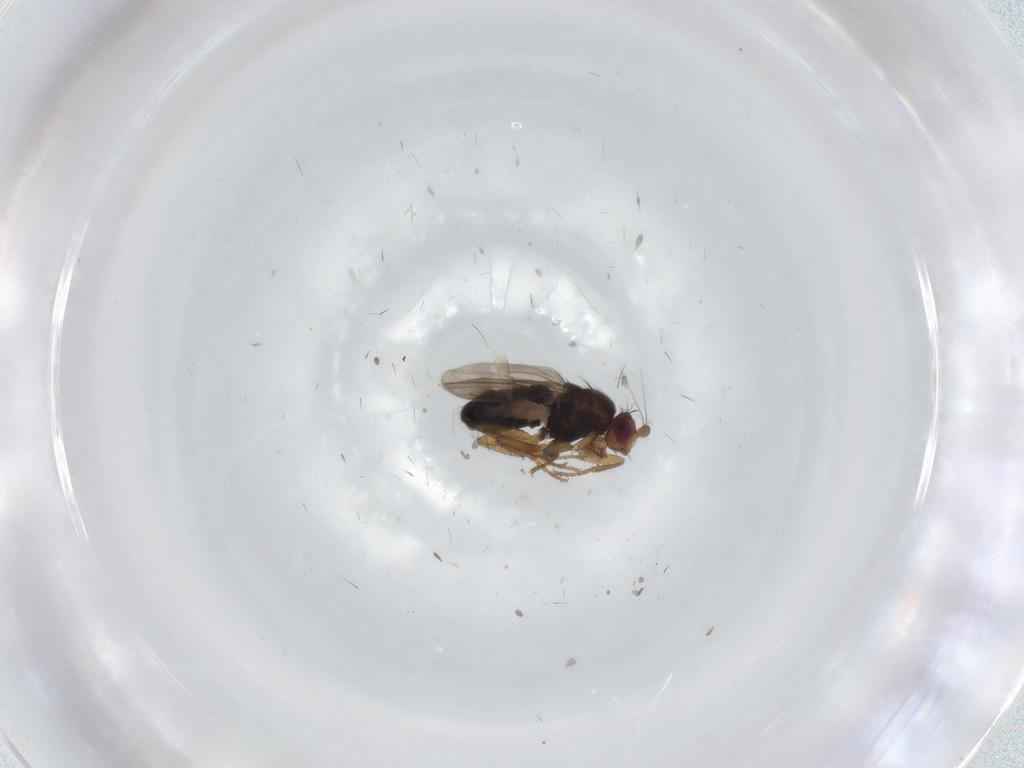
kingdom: Animalia
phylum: Arthropoda
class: Insecta
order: Diptera
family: Sphaeroceridae
